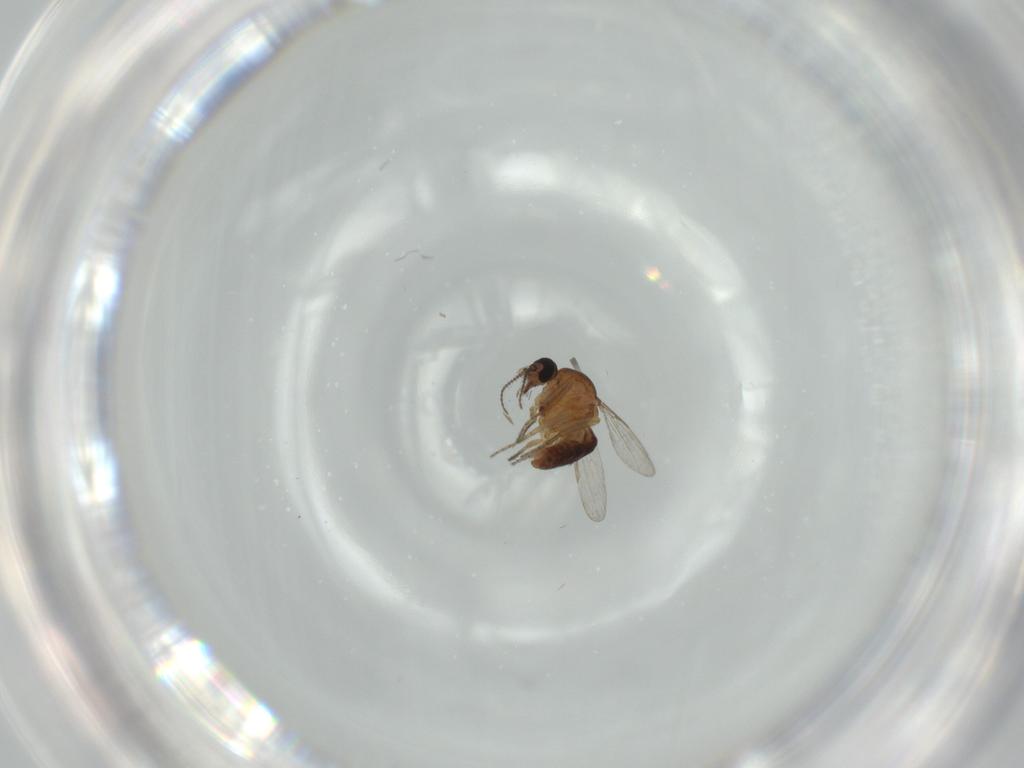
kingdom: Animalia
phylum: Arthropoda
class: Insecta
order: Diptera
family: Ceratopogonidae
